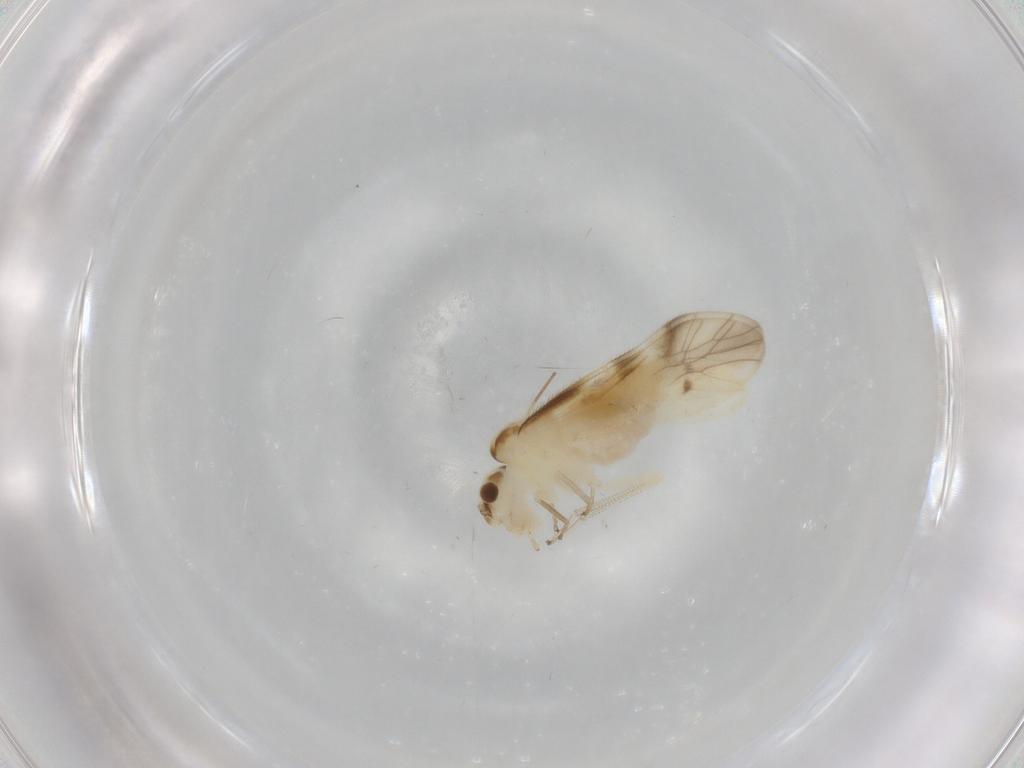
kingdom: Animalia
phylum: Arthropoda
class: Insecta
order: Psocodea
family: Caeciliusidae
